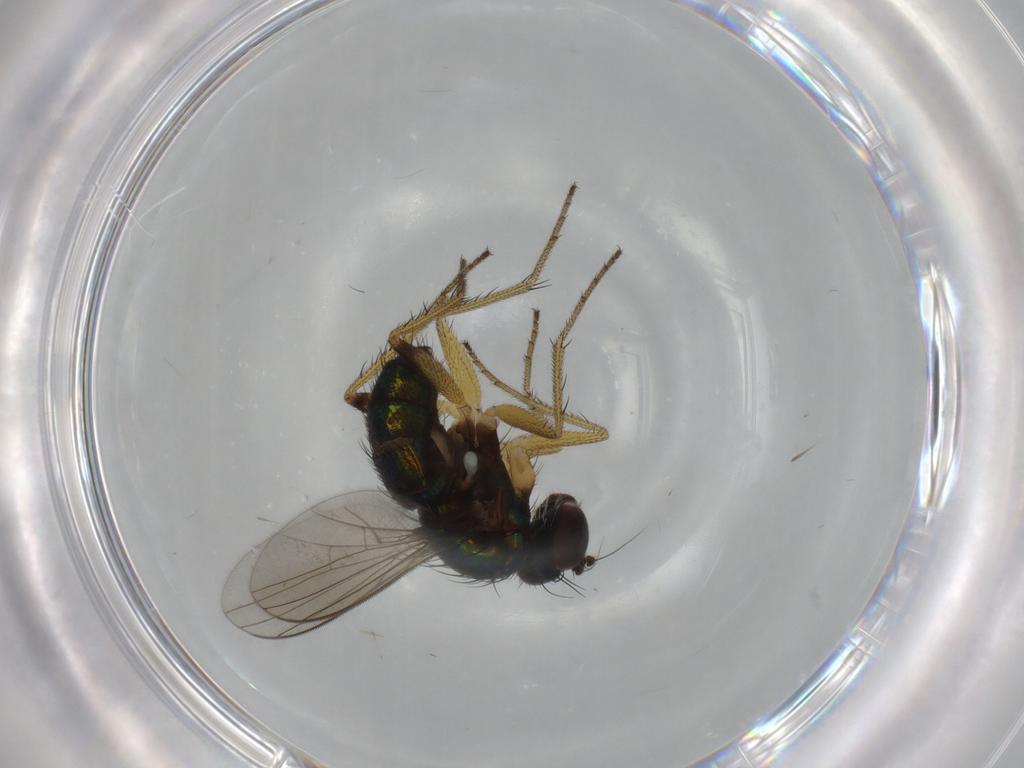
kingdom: Animalia
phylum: Arthropoda
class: Insecta
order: Diptera
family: Dolichopodidae
